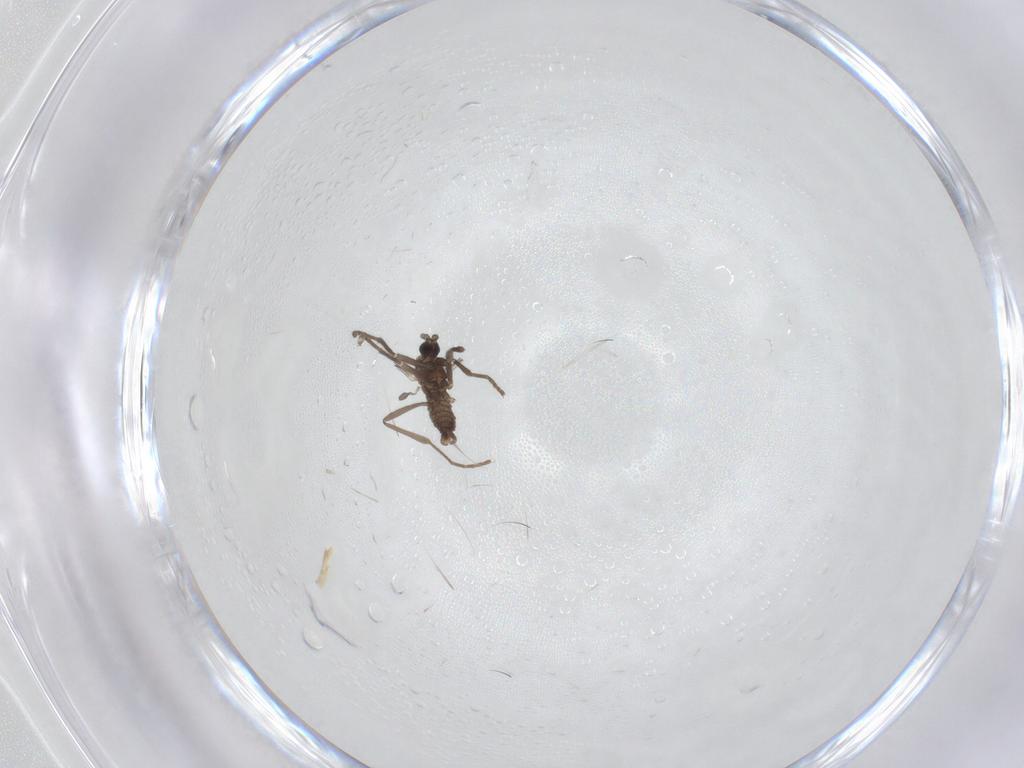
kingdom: Animalia
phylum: Arthropoda
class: Insecta
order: Diptera
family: Cecidomyiidae
